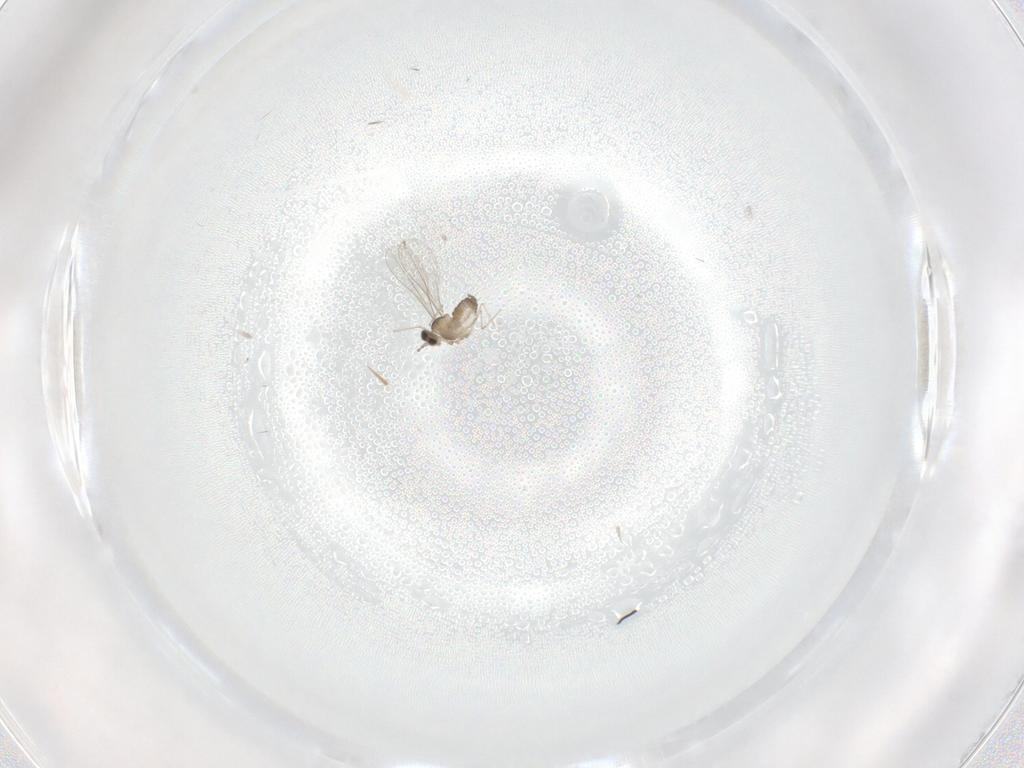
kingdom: Animalia
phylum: Arthropoda
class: Insecta
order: Diptera
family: Cecidomyiidae
